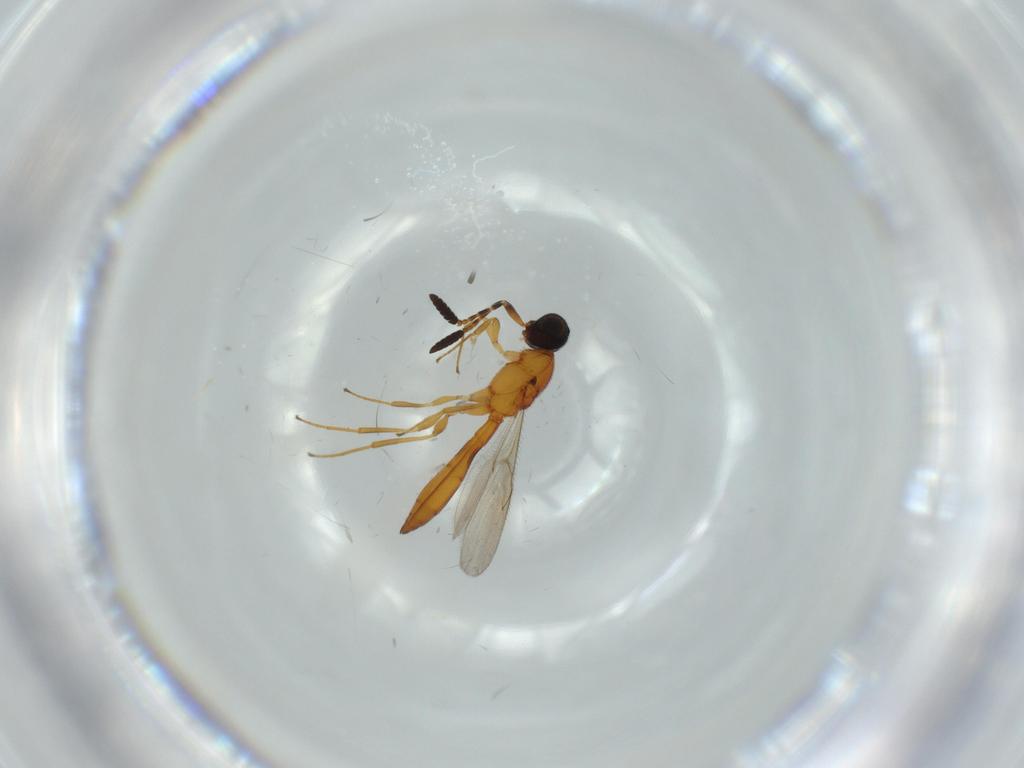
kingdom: Animalia
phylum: Arthropoda
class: Insecta
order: Hymenoptera
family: Scelionidae
